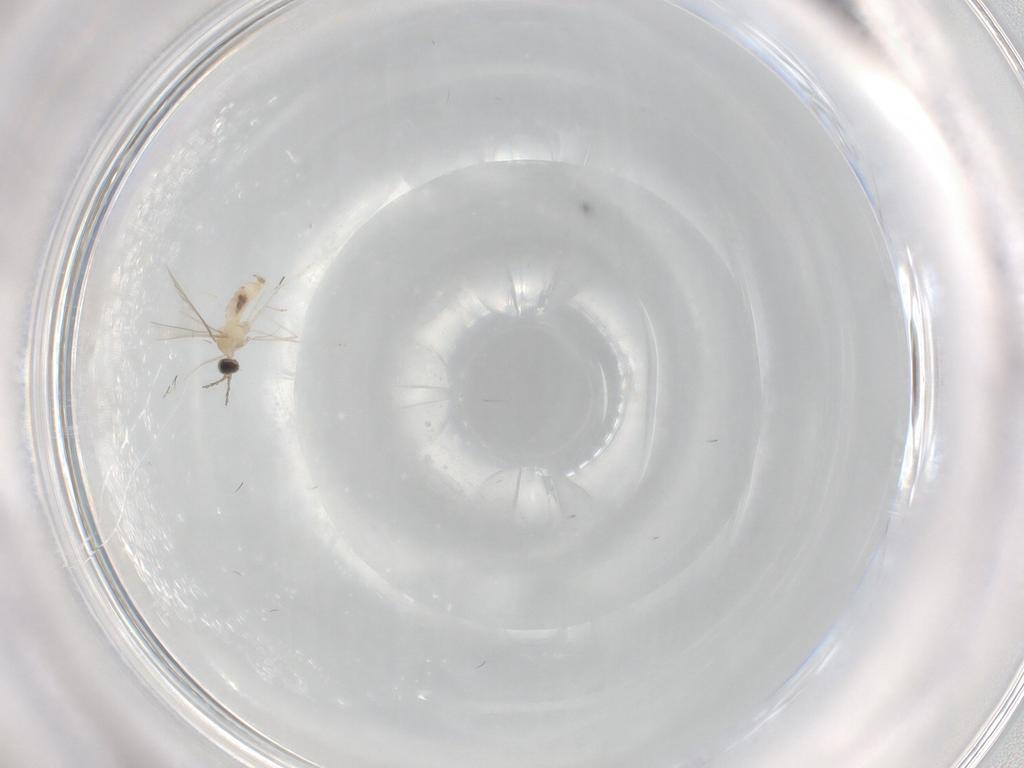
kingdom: Animalia
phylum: Arthropoda
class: Insecta
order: Diptera
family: Cecidomyiidae
